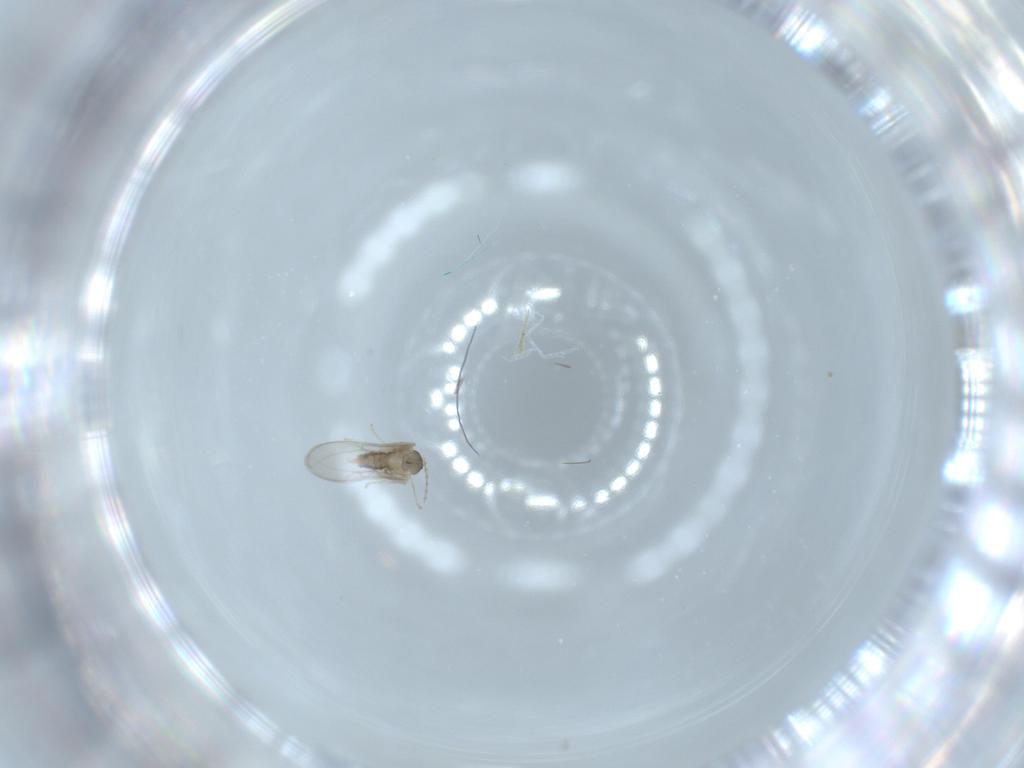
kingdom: Animalia
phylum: Arthropoda
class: Insecta
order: Diptera
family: Cecidomyiidae
